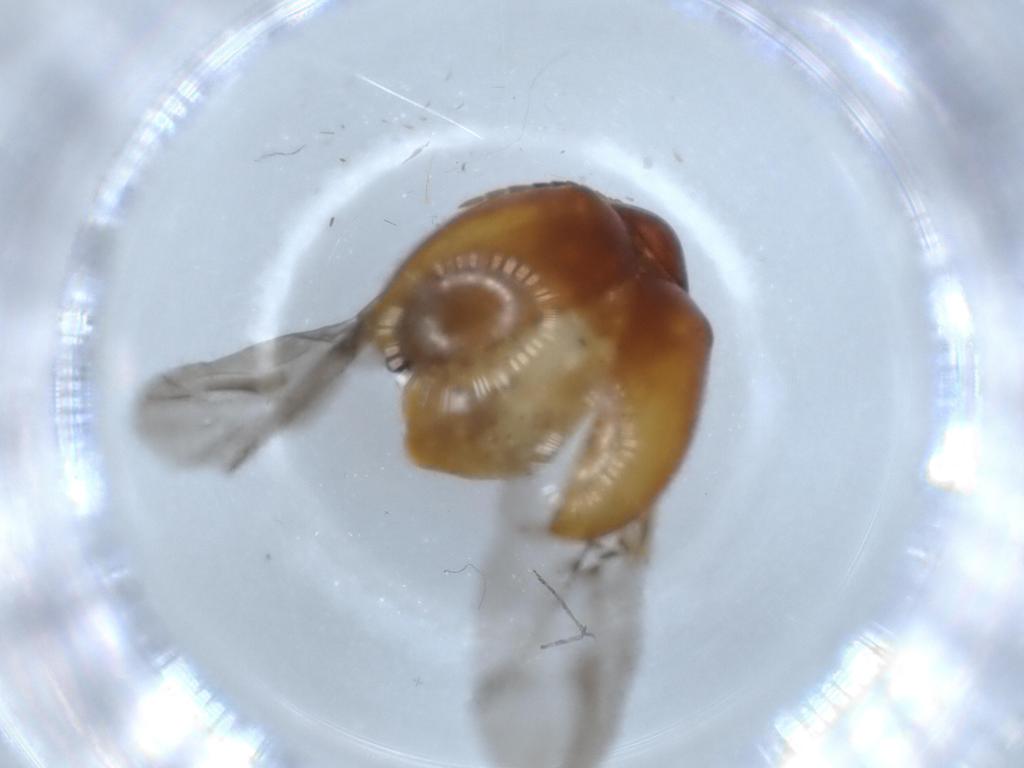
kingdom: Animalia
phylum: Arthropoda
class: Insecta
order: Coleoptera
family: Chrysomelidae
